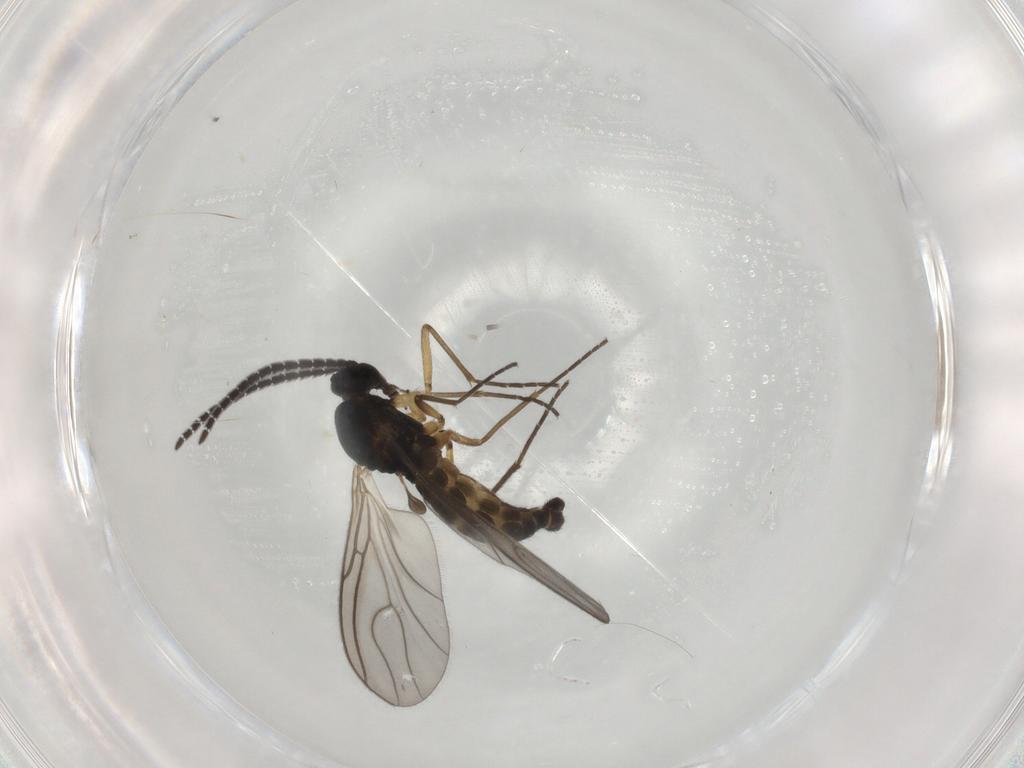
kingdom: Animalia
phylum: Arthropoda
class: Insecta
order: Diptera
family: Sciaridae
